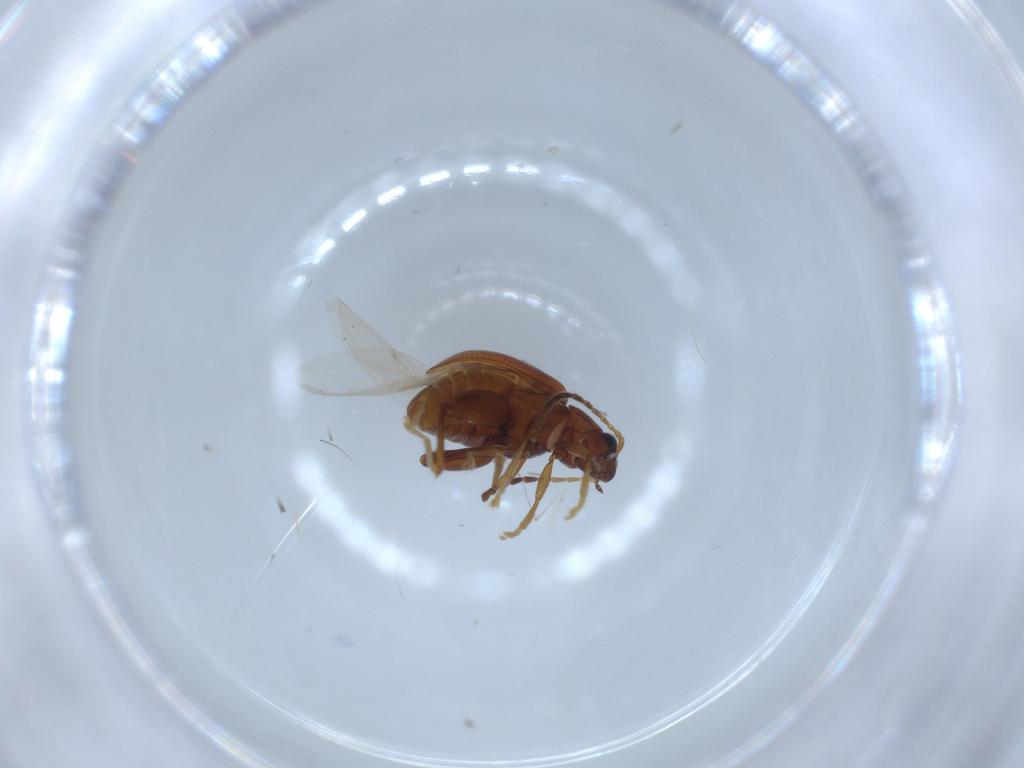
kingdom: Animalia
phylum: Arthropoda
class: Insecta
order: Coleoptera
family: Chrysomelidae
